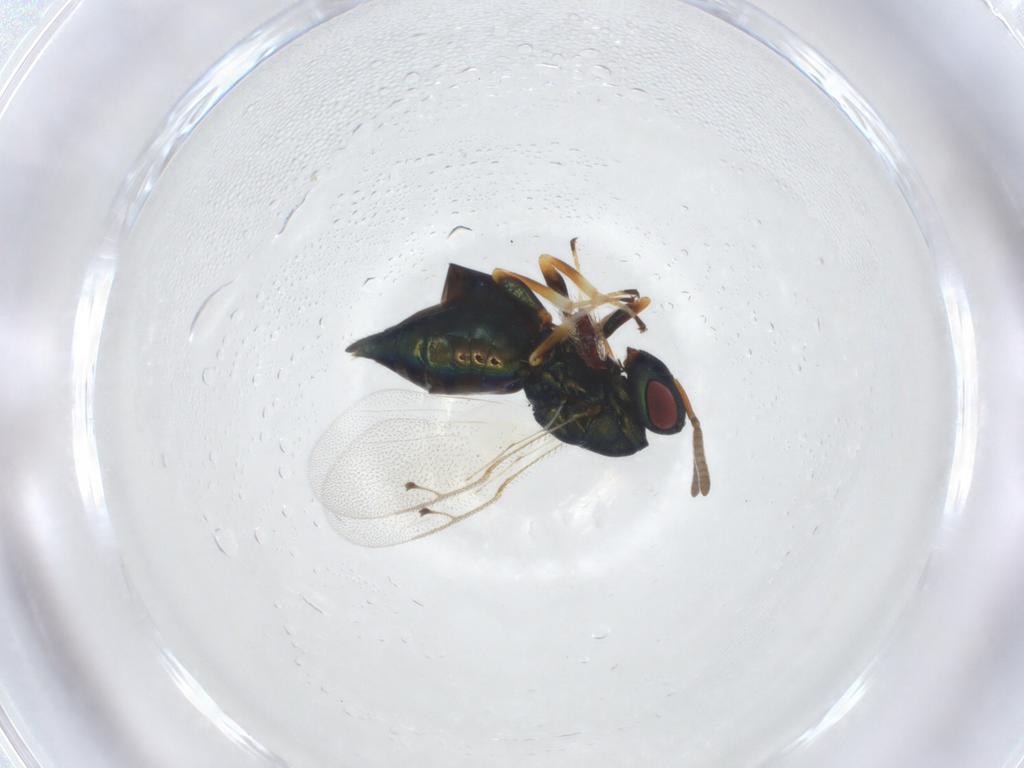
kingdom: Animalia
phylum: Arthropoda
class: Insecta
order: Hymenoptera
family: Pteromalidae
